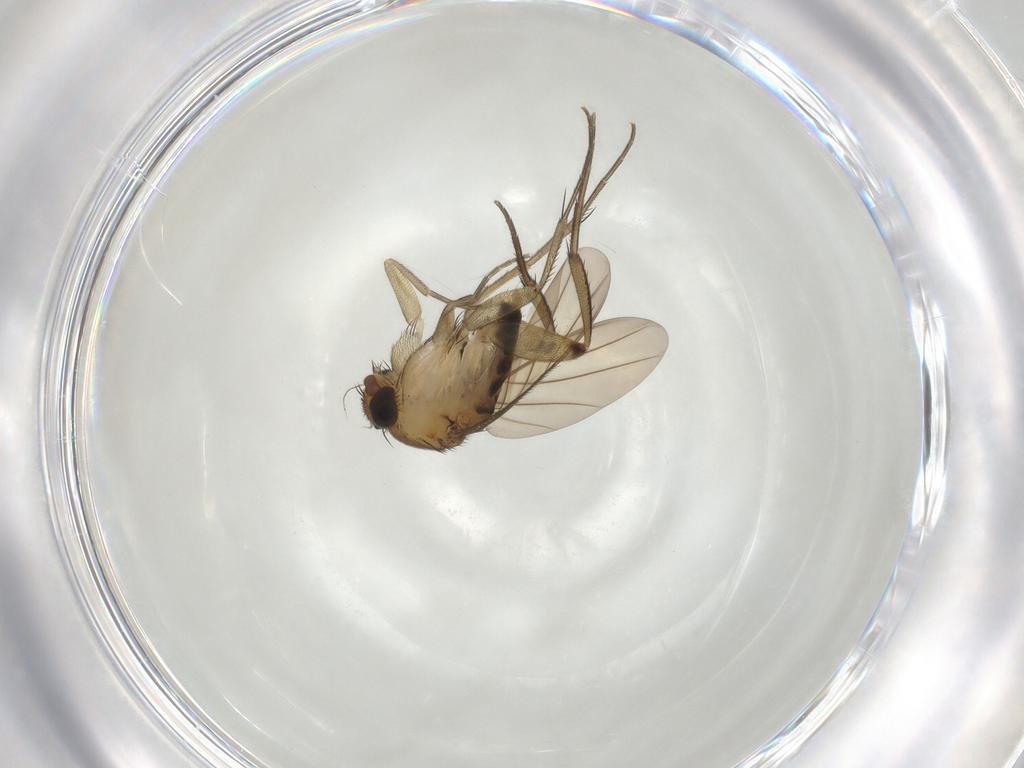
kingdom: Animalia
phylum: Arthropoda
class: Insecta
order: Diptera
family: Phoridae
